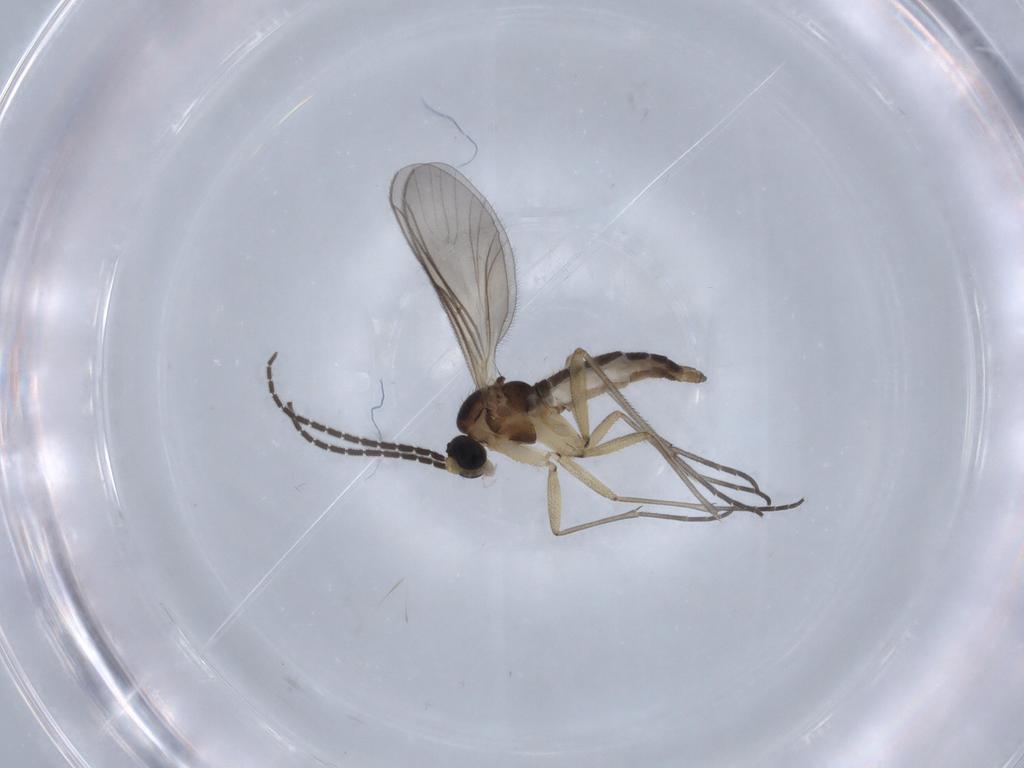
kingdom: Animalia
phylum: Arthropoda
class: Insecta
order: Diptera
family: Sciaridae
